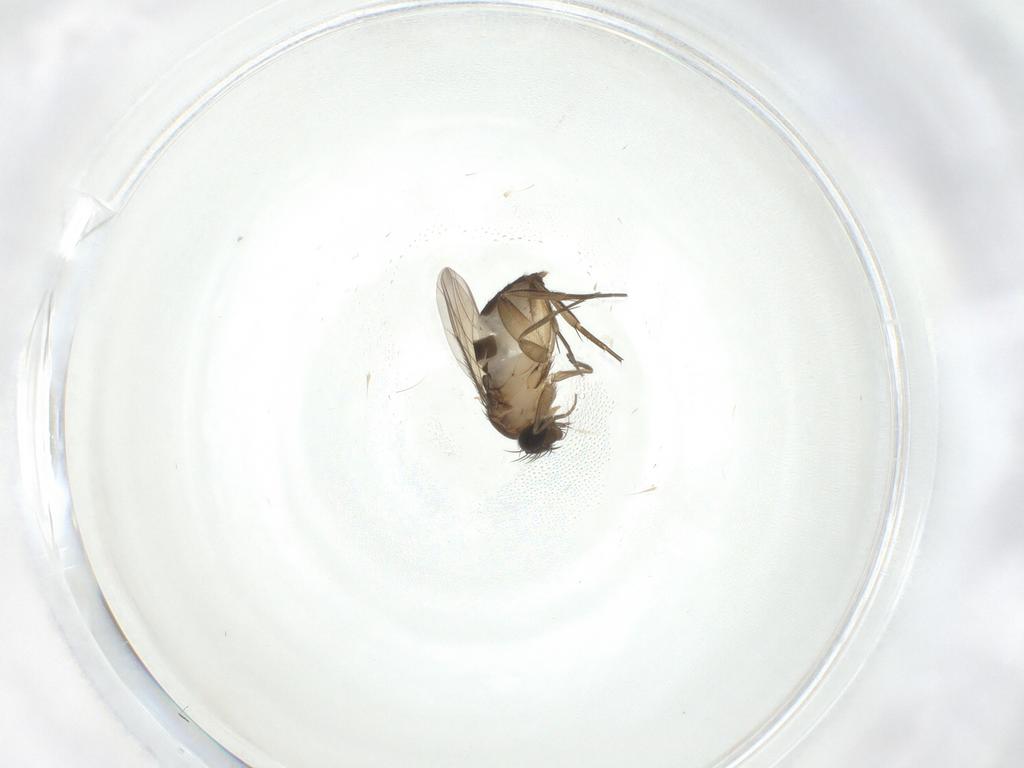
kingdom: Animalia
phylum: Arthropoda
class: Insecta
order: Diptera
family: Phoridae
